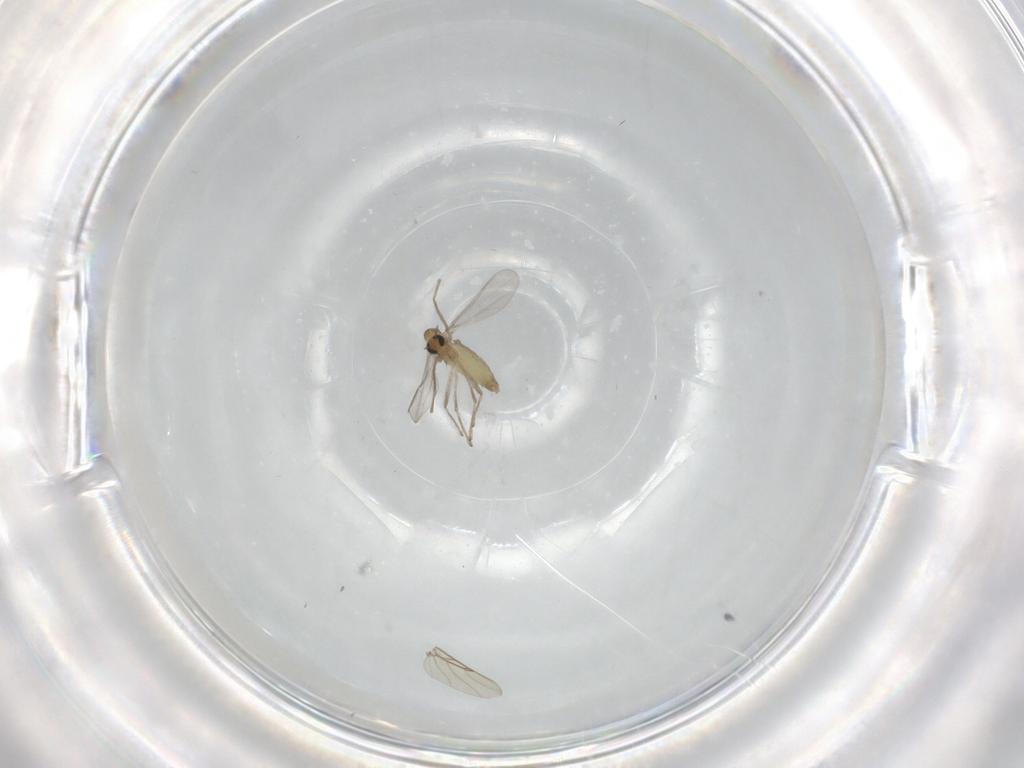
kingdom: Animalia
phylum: Arthropoda
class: Insecta
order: Diptera
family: Chironomidae
